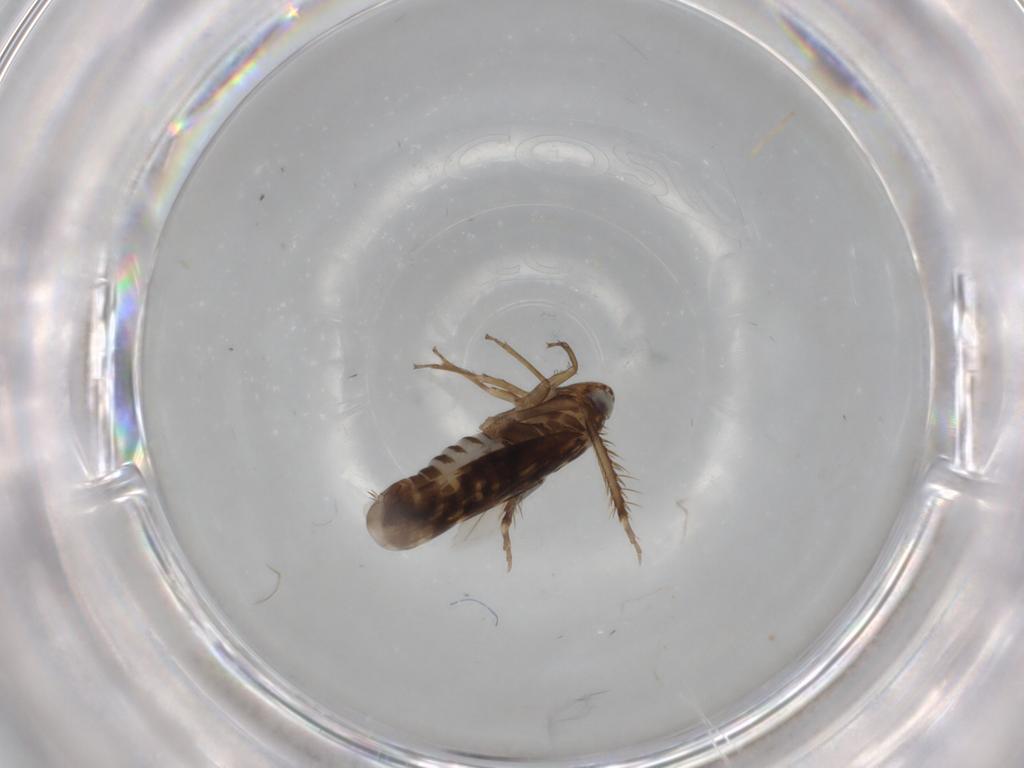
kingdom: Animalia
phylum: Arthropoda
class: Insecta
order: Hemiptera
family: Cicadellidae
